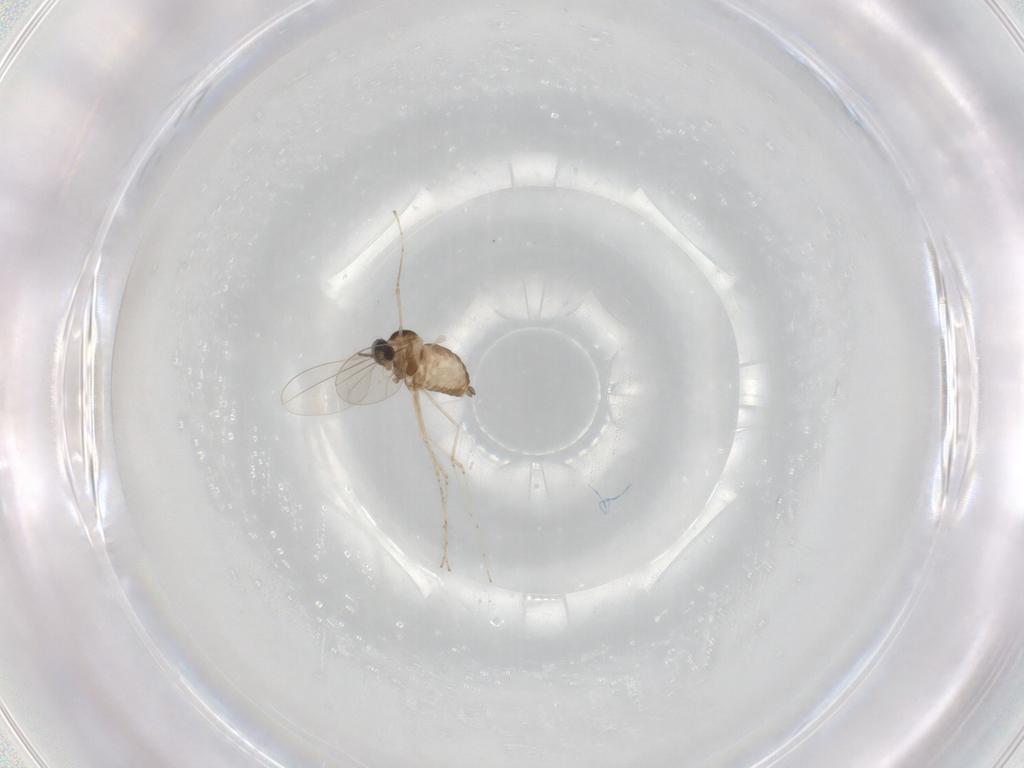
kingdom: Animalia
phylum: Arthropoda
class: Insecta
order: Diptera
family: Cecidomyiidae
